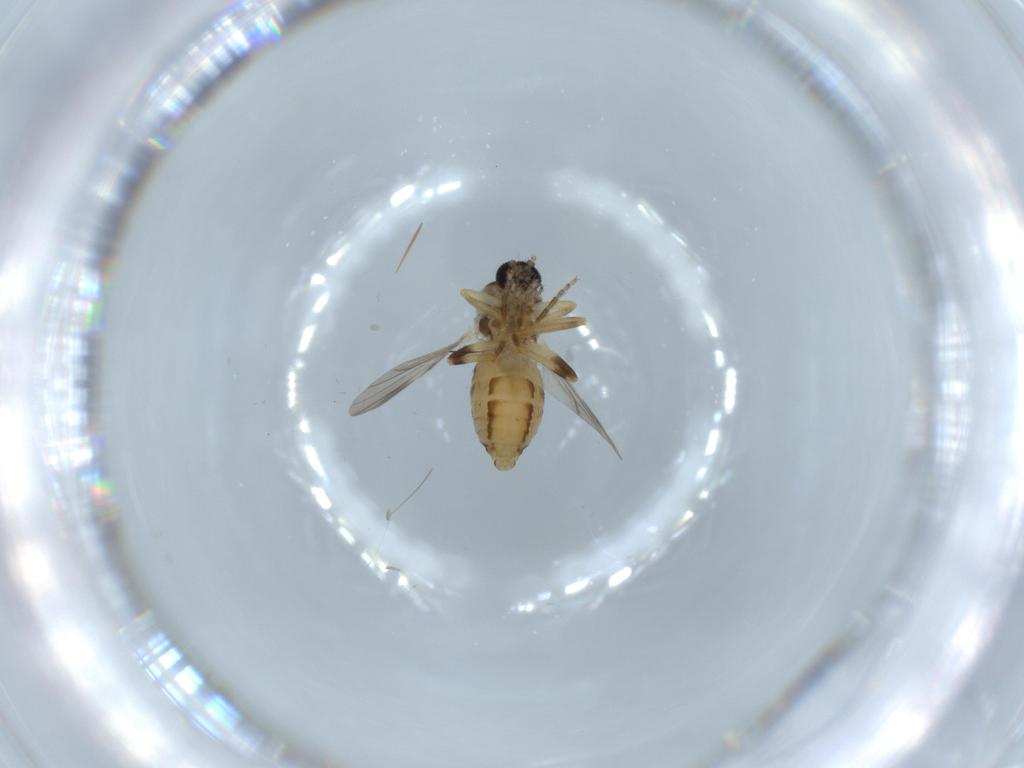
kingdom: Animalia
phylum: Arthropoda
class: Insecta
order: Diptera
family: Ceratopogonidae
